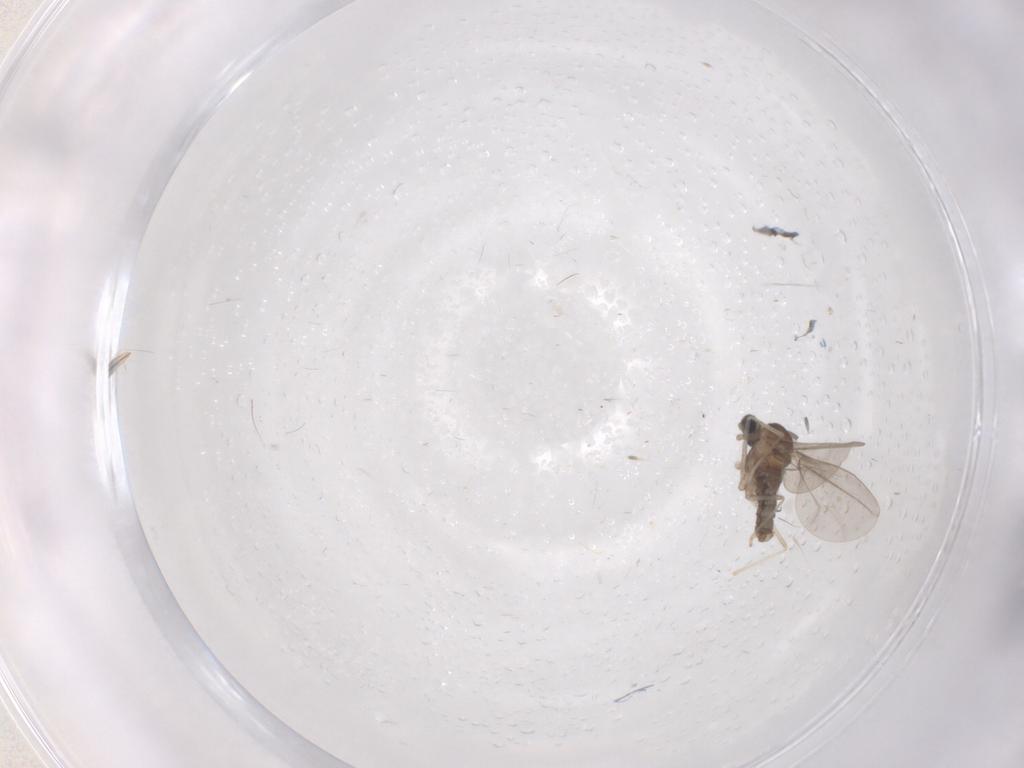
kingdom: Animalia
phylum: Arthropoda
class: Insecta
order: Diptera
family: Cecidomyiidae
